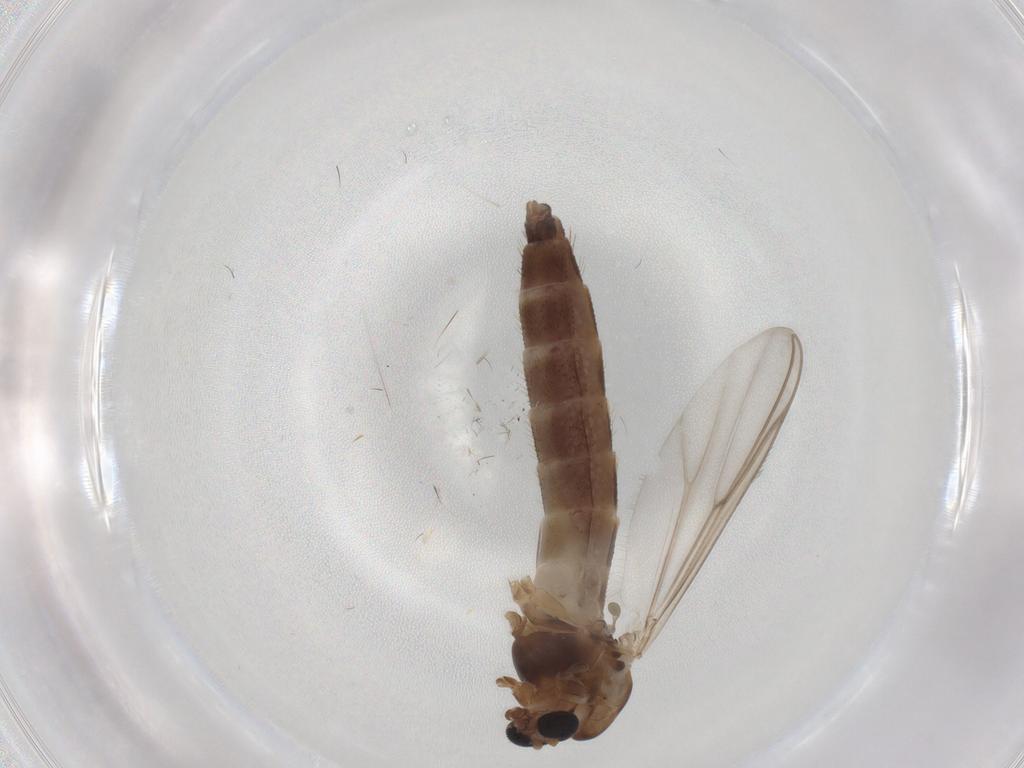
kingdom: Animalia
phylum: Arthropoda
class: Insecta
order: Diptera
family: Chironomidae
